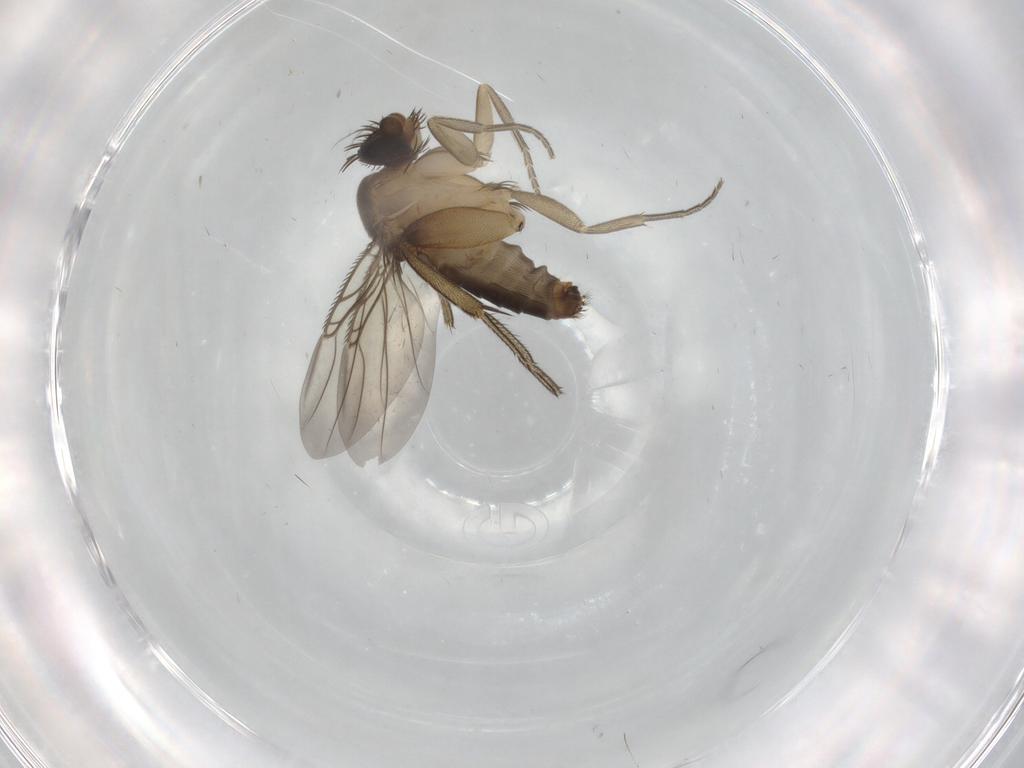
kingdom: Animalia
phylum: Arthropoda
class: Insecta
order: Diptera
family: Phoridae
